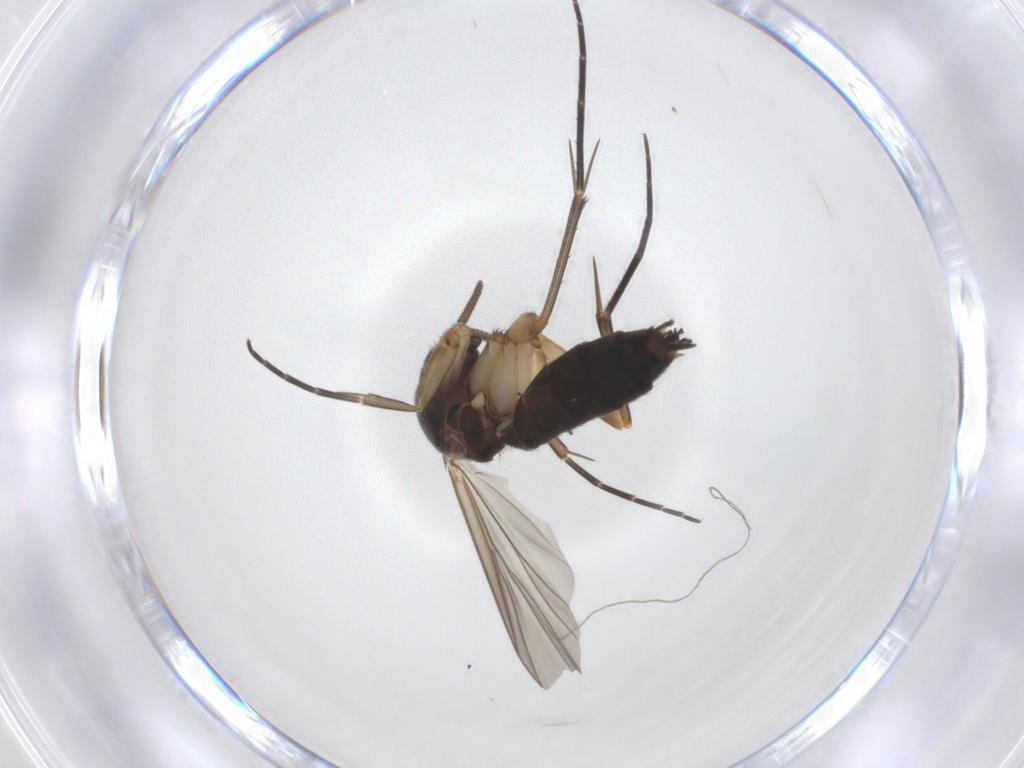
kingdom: Animalia
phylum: Arthropoda
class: Insecta
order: Diptera
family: Mycetophilidae
